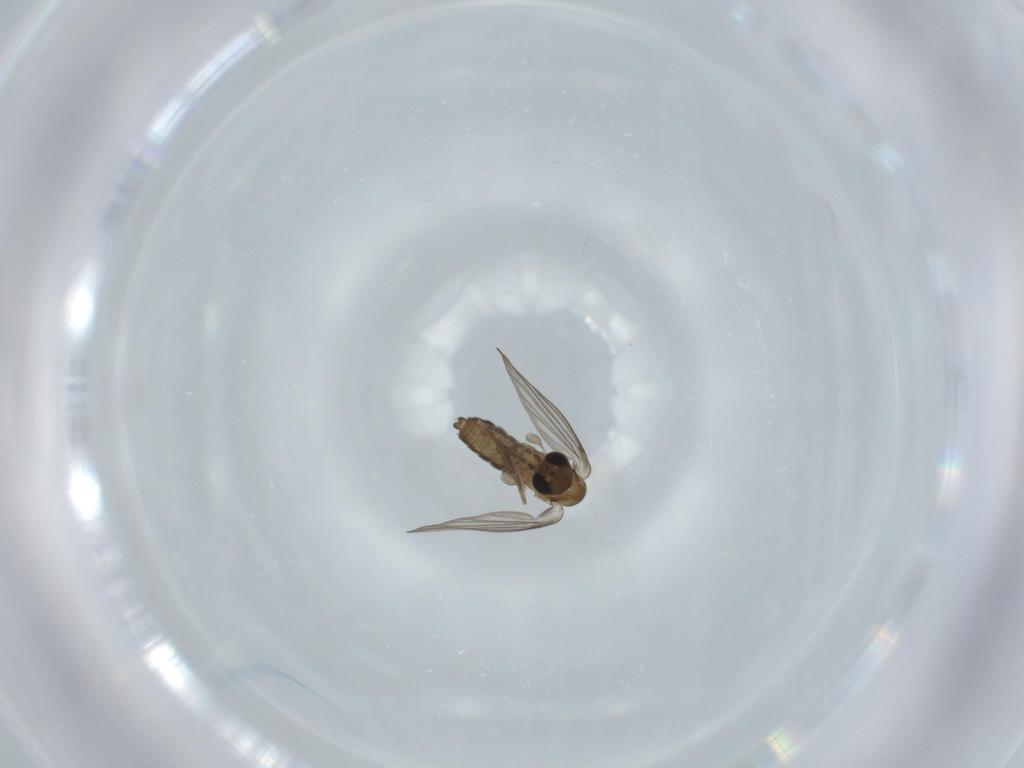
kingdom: Animalia
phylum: Arthropoda
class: Insecta
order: Diptera
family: Psychodidae
